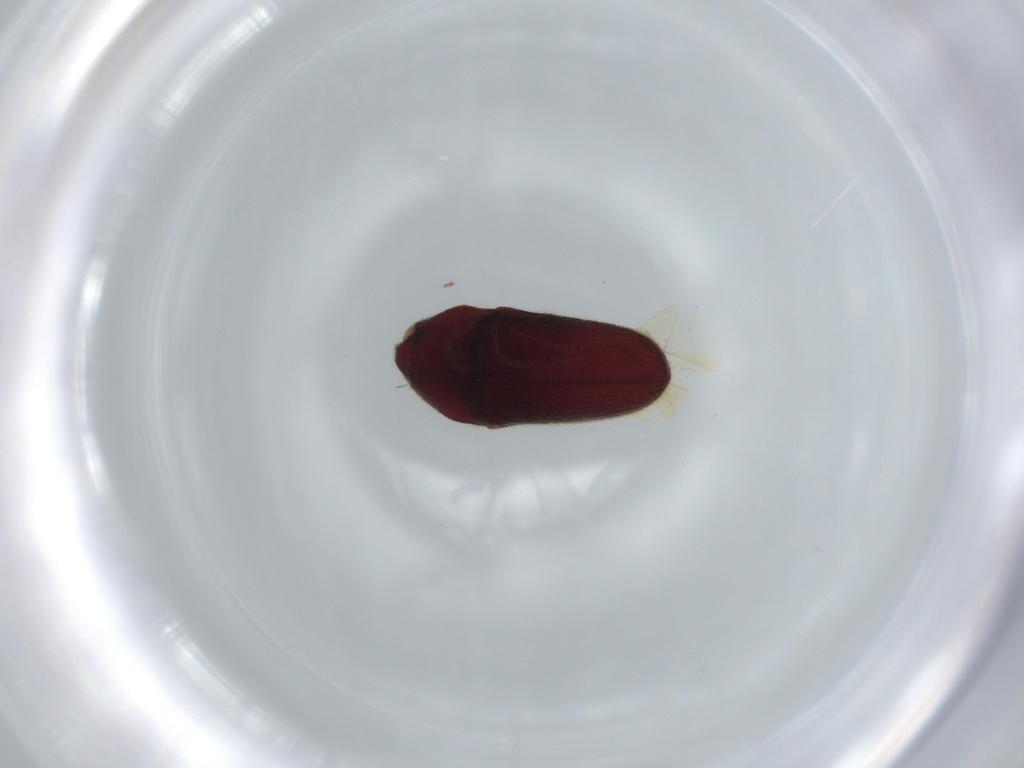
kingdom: Animalia
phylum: Arthropoda
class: Insecta
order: Coleoptera
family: Throscidae
